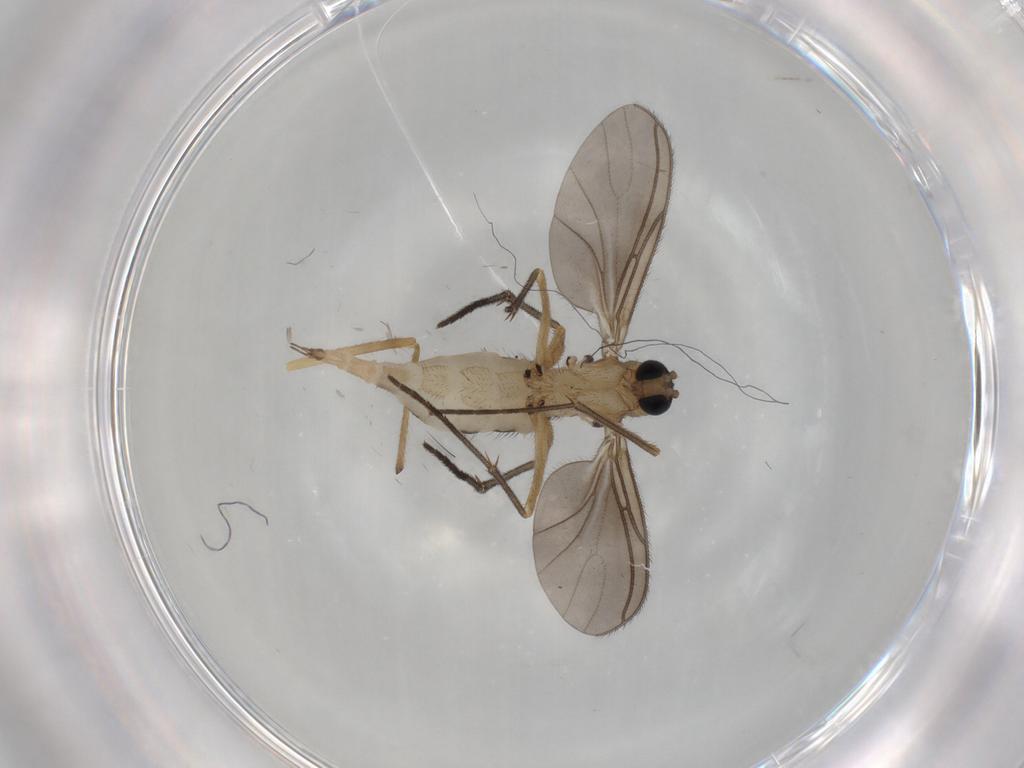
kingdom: Animalia
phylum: Arthropoda
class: Insecta
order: Diptera
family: Sciaridae
